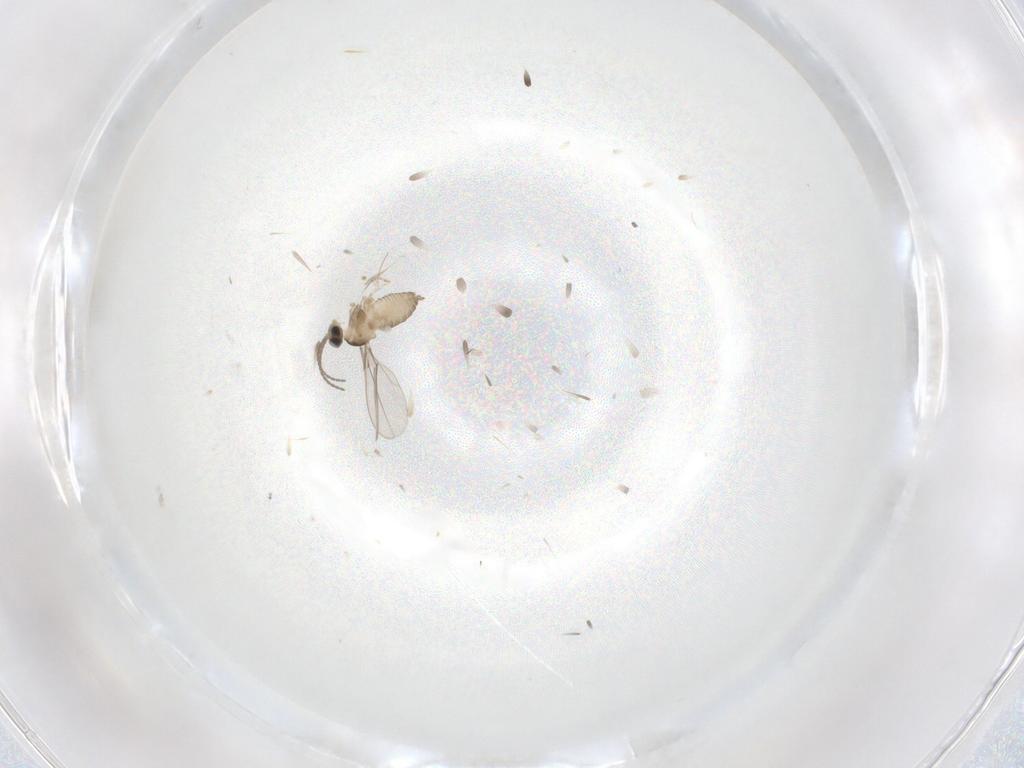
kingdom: Animalia
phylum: Arthropoda
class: Insecta
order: Diptera
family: Cecidomyiidae
